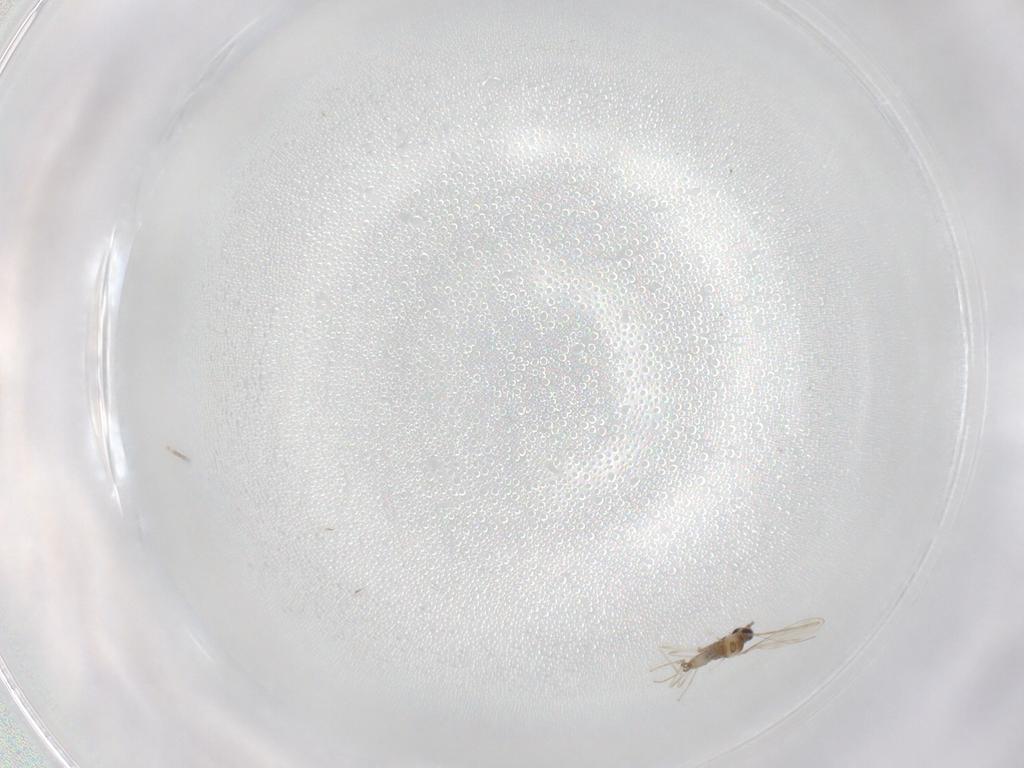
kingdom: Animalia
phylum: Arthropoda
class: Insecta
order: Diptera
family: Cecidomyiidae
